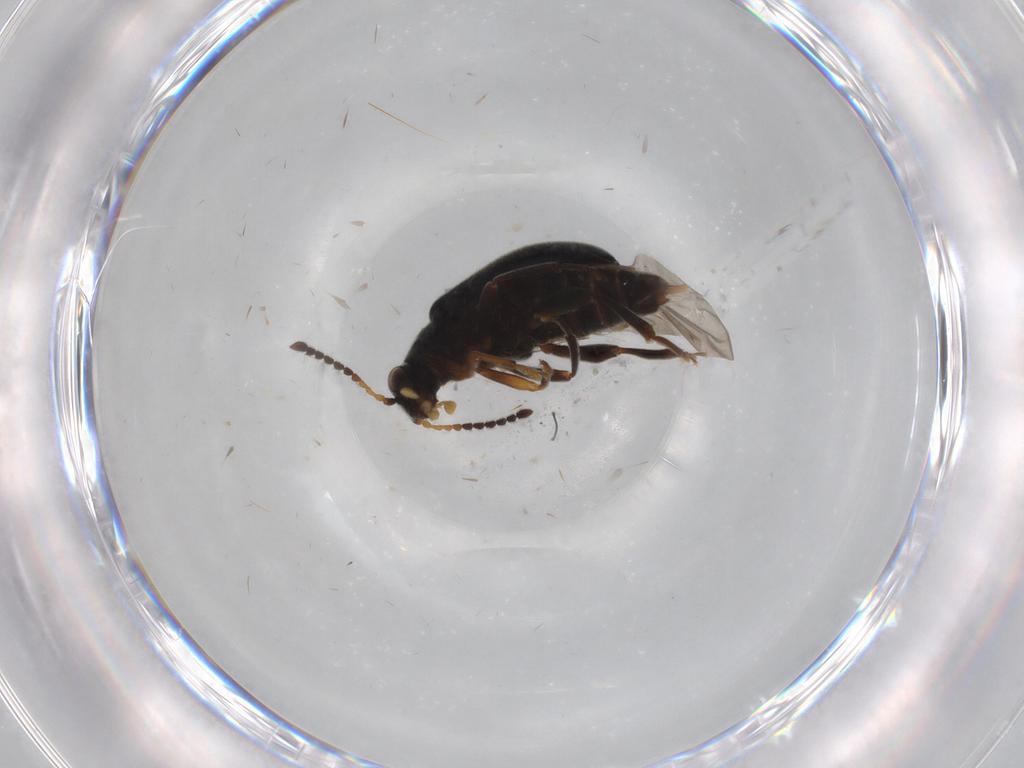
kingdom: Animalia
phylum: Arthropoda
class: Insecta
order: Coleoptera
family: Aderidae
